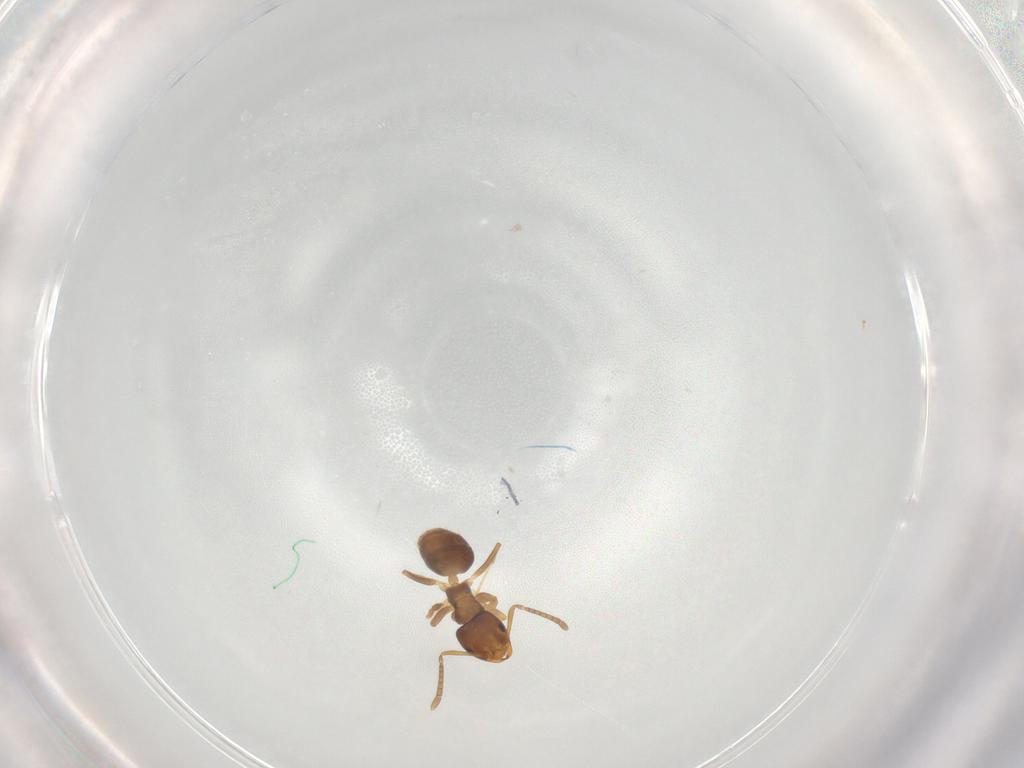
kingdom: Animalia
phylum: Arthropoda
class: Insecta
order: Hymenoptera
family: Formicidae
